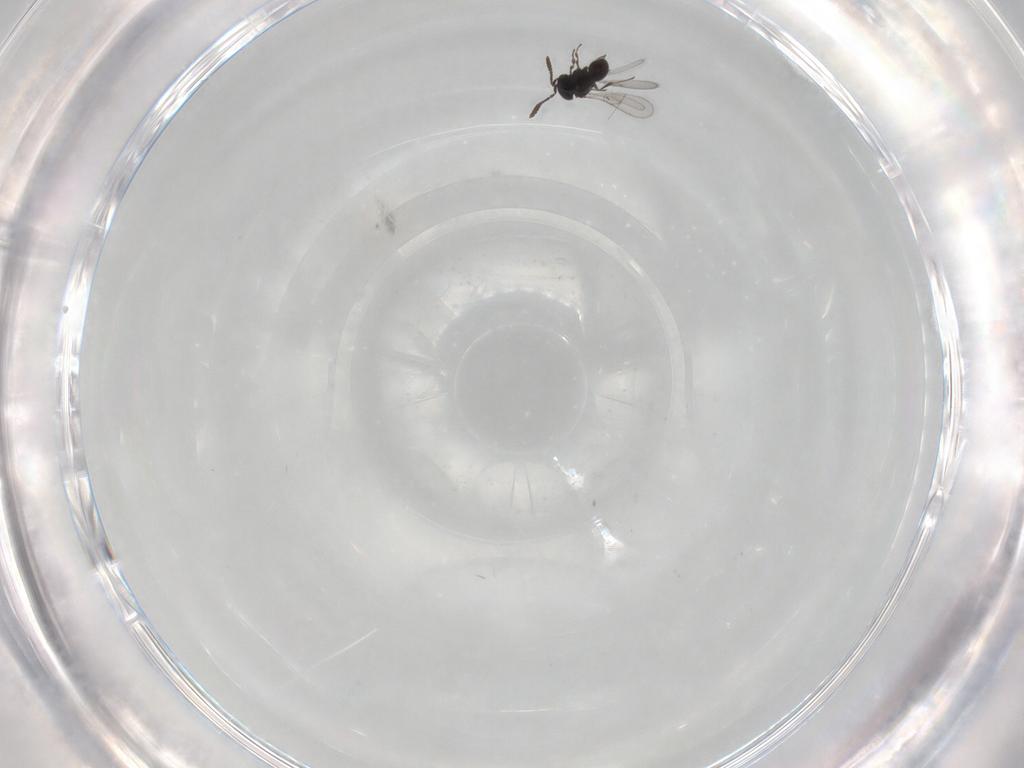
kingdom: Animalia
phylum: Arthropoda
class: Insecta
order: Hymenoptera
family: Scelionidae
